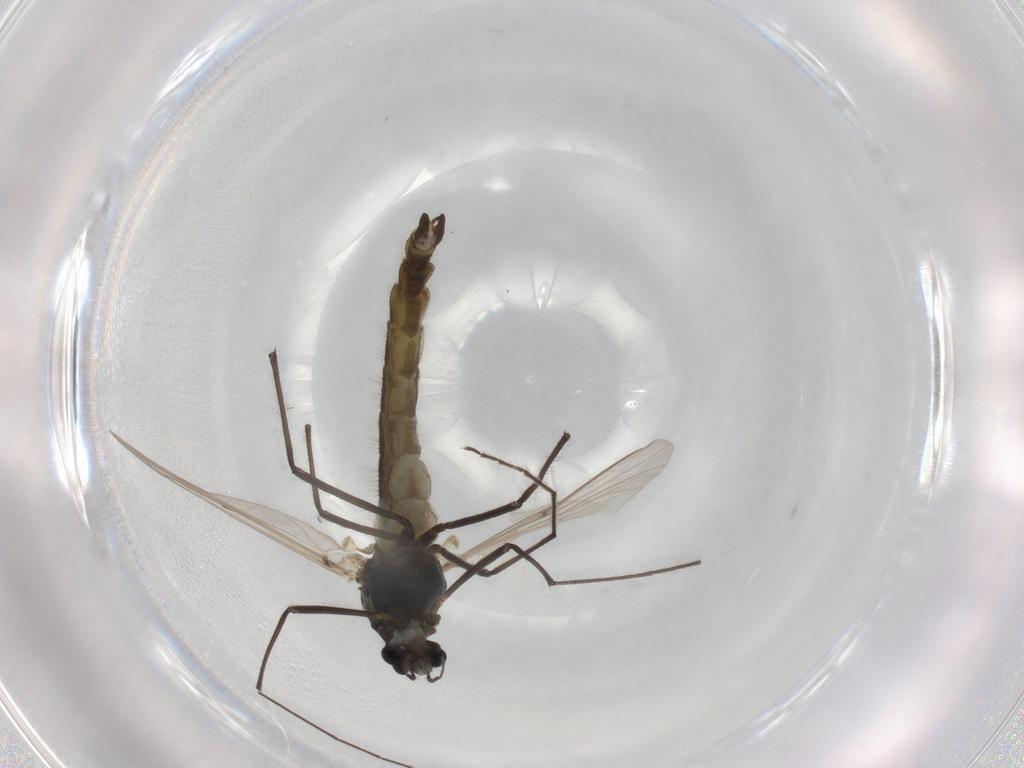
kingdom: Animalia
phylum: Arthropoda
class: Insecta
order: Diptera
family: Chironomidae
